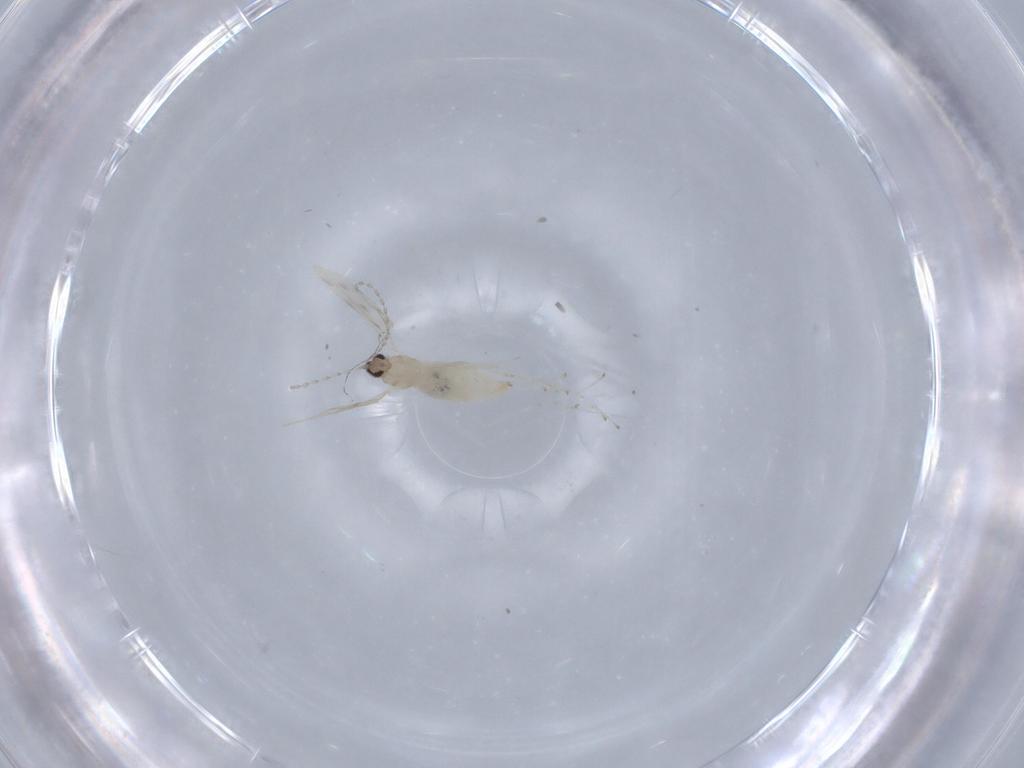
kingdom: Animalia
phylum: Arthropoda
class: Insecta
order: Diptera
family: Cecidomyiidae
